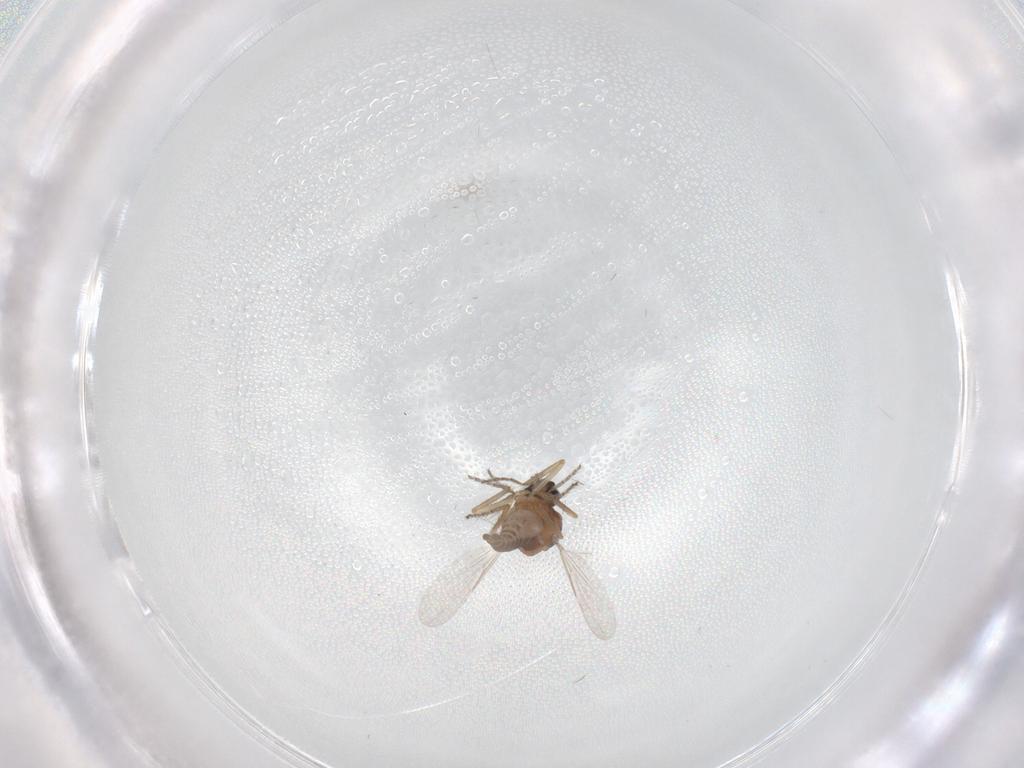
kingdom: Animalia
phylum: Arthropoda
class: Insecta
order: Diptera
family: Ceratopogonidae
